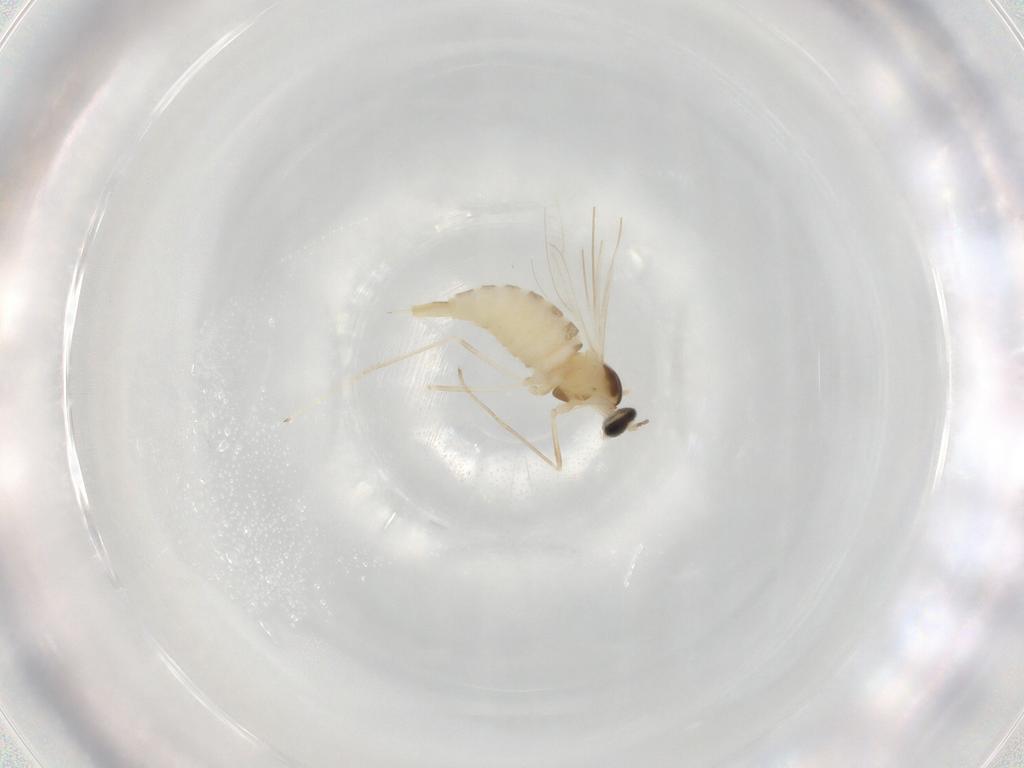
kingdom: Animalia
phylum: Arthropoda
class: Insecta
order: Diptera
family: Cecidomyiidae
